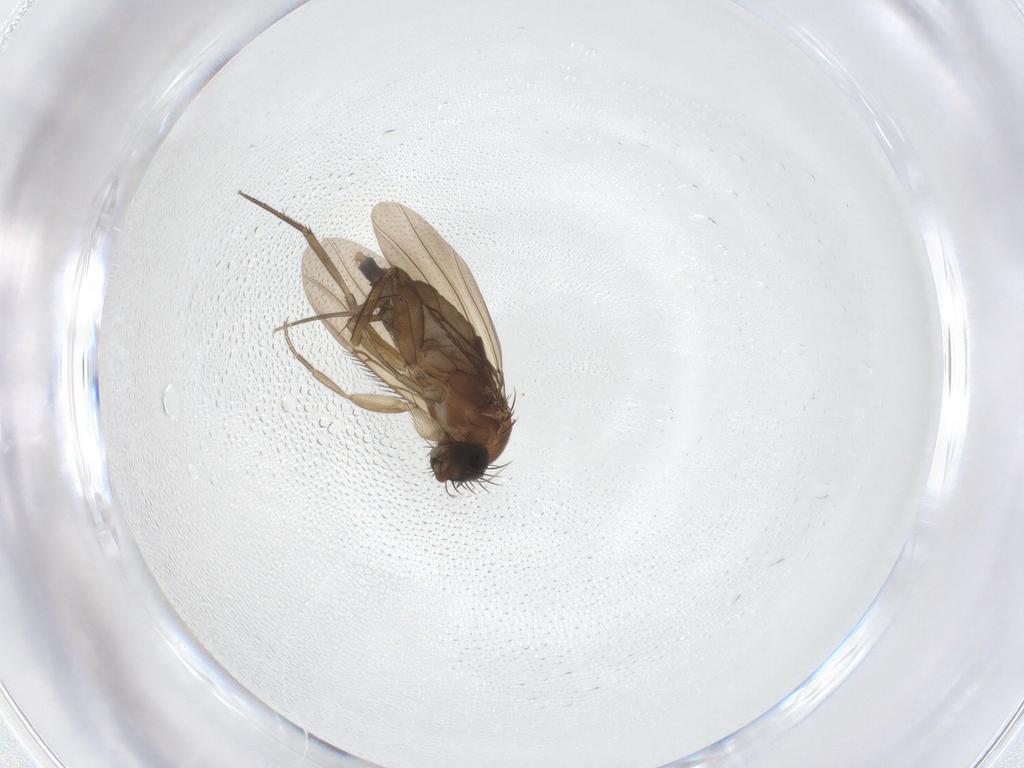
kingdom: Animalia
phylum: Arthropoda
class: Insecta
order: Diptera
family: Phoridae
